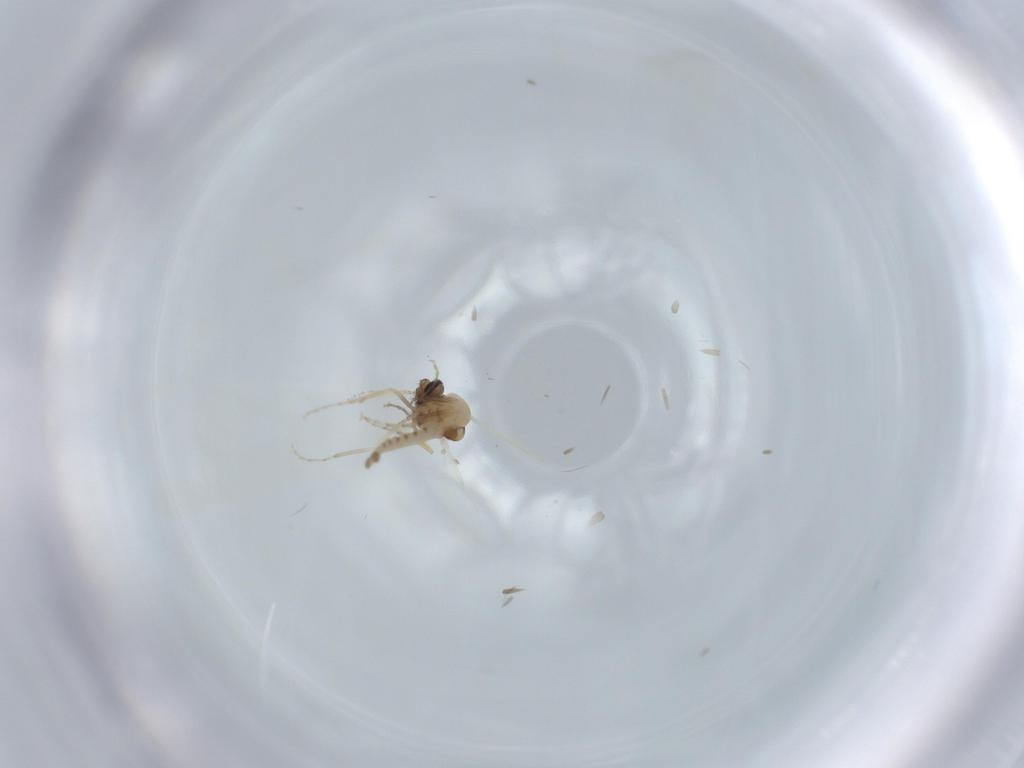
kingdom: Animalia
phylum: Arthropoda
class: Insecta
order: Diptera
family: Ceratopogonidae
